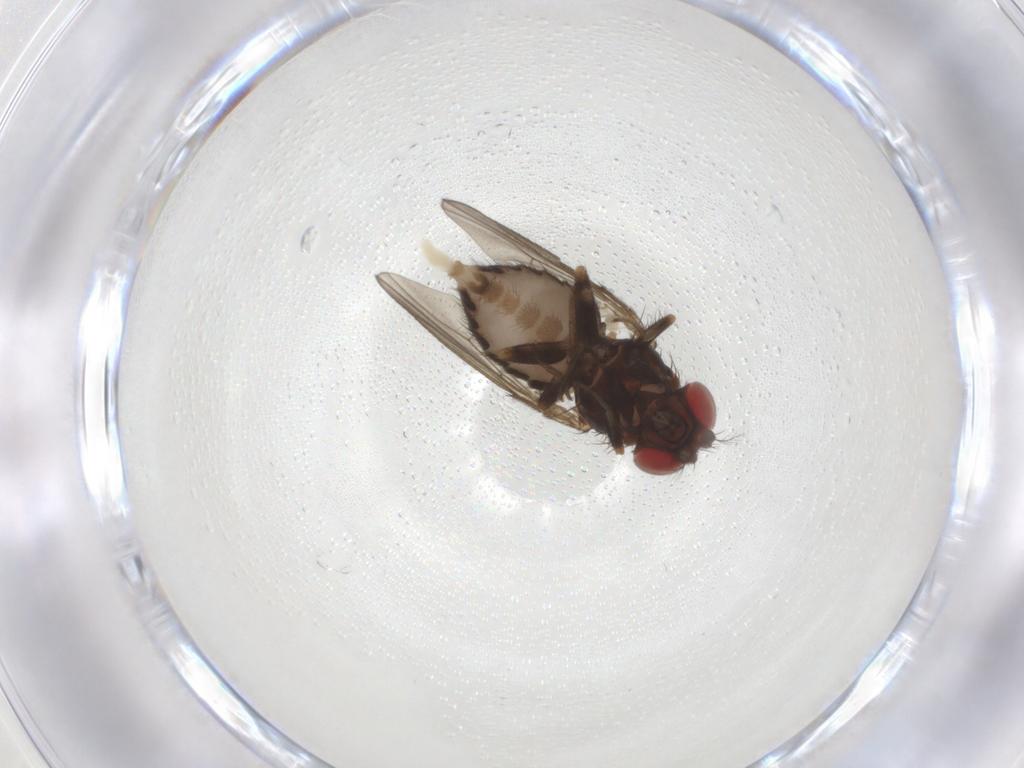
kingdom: Animalia
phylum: Arthropoda
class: Insecta
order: Diptera
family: Drosophilidae
